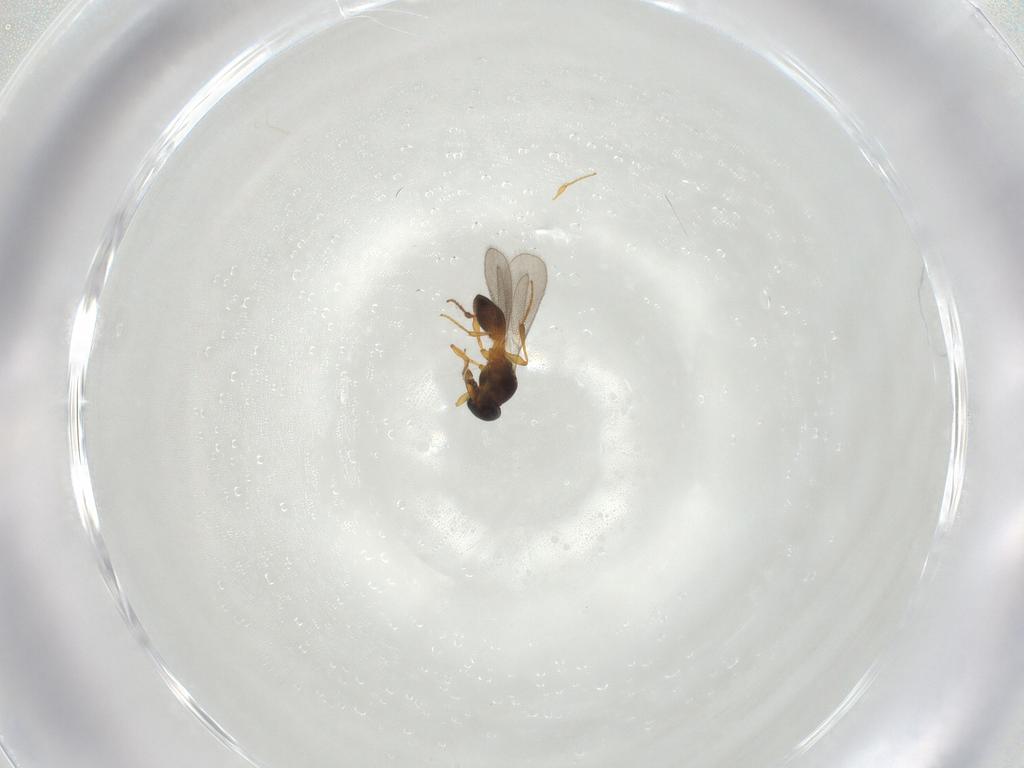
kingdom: Animalia
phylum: Arthropoda
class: Insecta
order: Hymenoptera
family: Platygastridae
